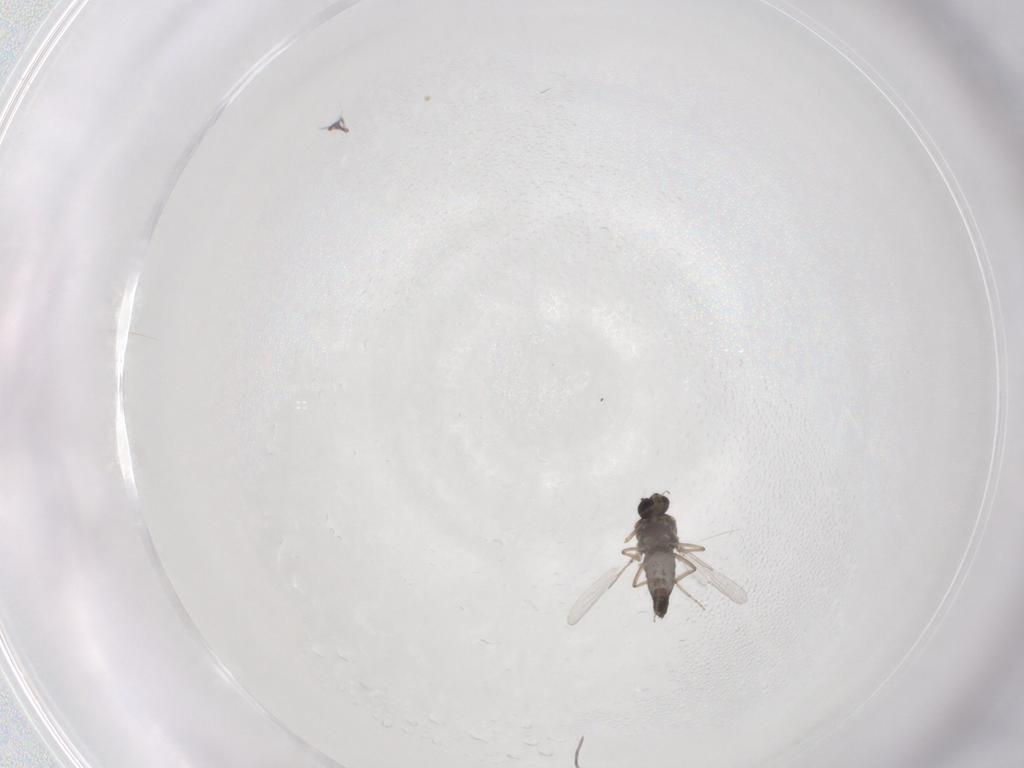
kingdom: Animalia
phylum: Arthropoda
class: Insecta
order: Diptera
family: Ceratopogonidae
